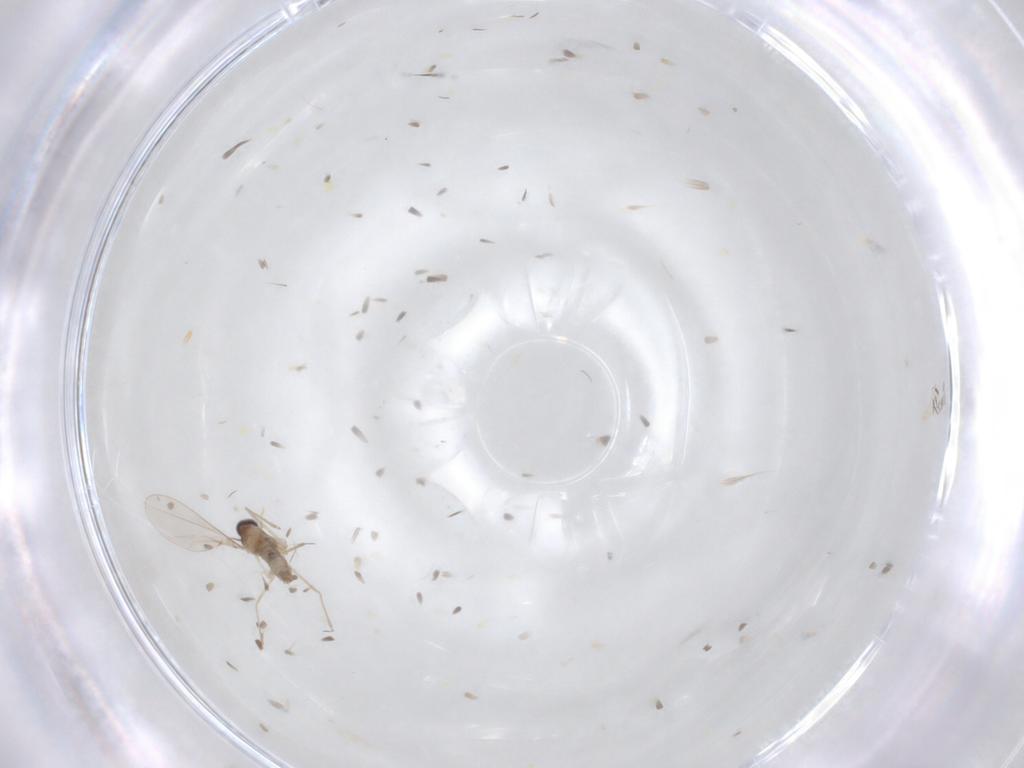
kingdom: Animalia
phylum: Arthropoda
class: Insecta
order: Diptera
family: Cecidomyiidae
